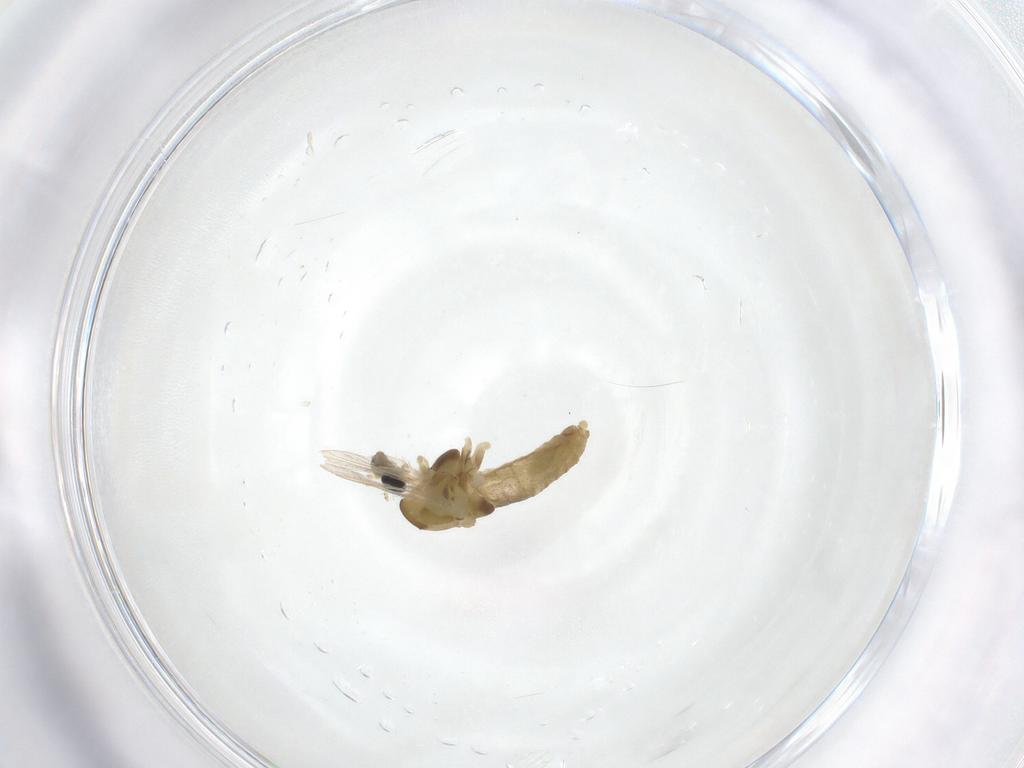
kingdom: Animalia
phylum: Arthropoda
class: Insecta
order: Diptera
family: Chironomidae
